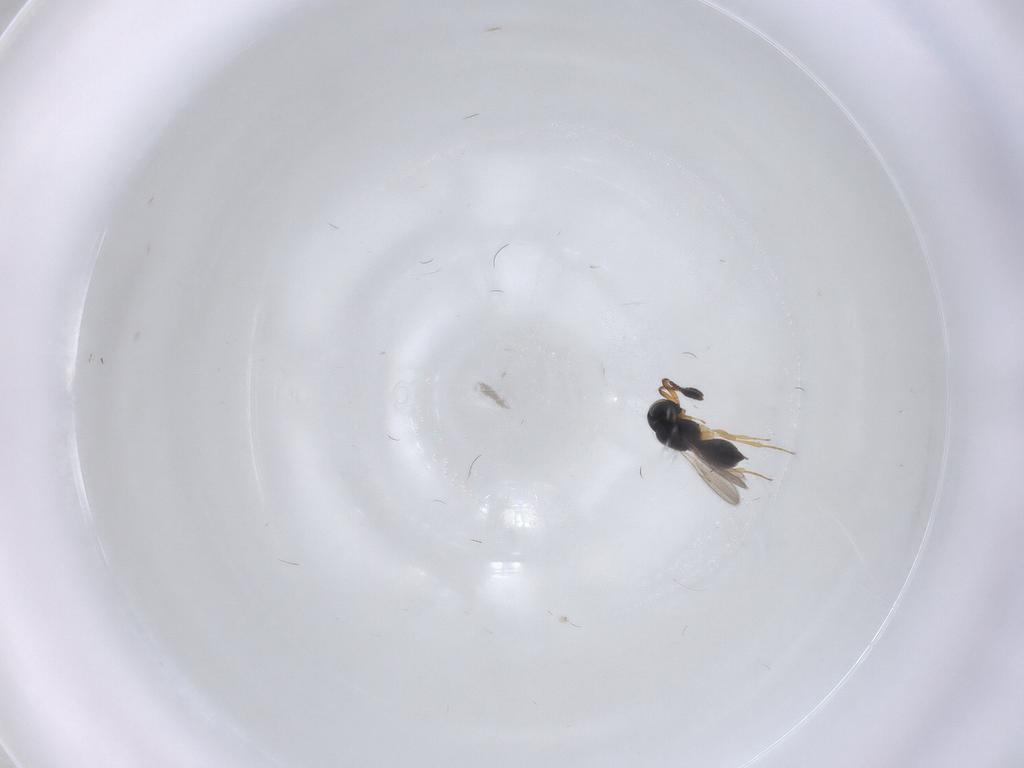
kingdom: Animalia
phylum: Arthropoda
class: Insecta
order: Hymenoptera
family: Scelionidae
